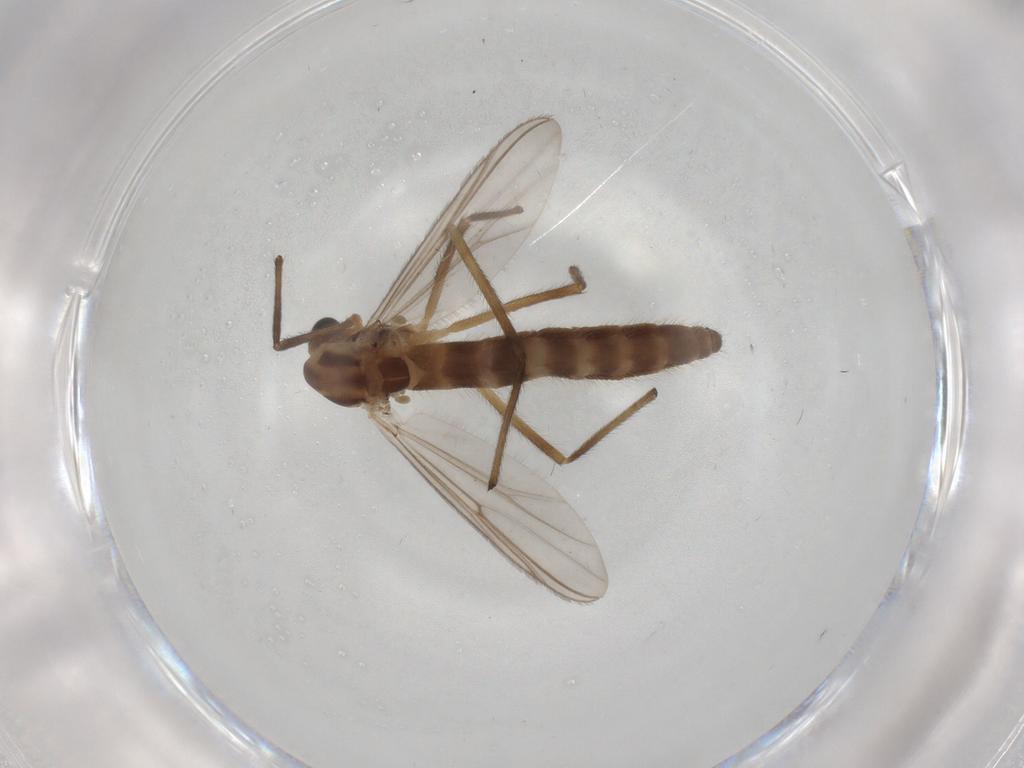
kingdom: Animalia
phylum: Arthropoda
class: Insecta
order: Diptera
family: Chironomidae
